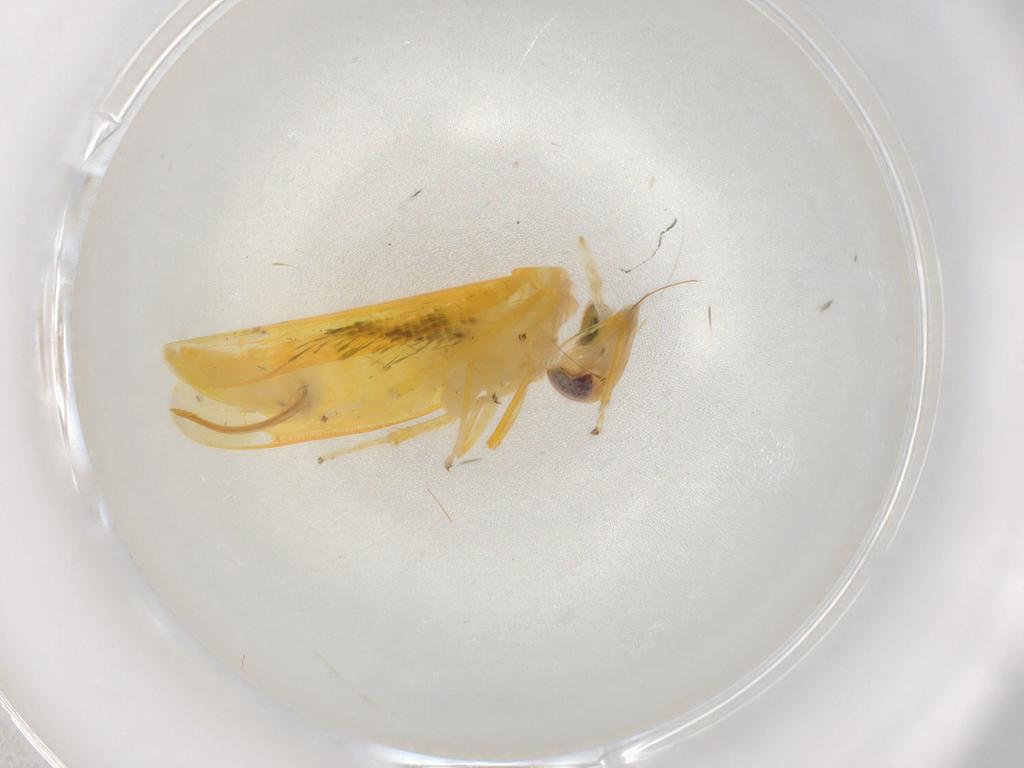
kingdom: Animalia
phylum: Arthropoda
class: Insecta
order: Hemiptera
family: Cicadellidae
